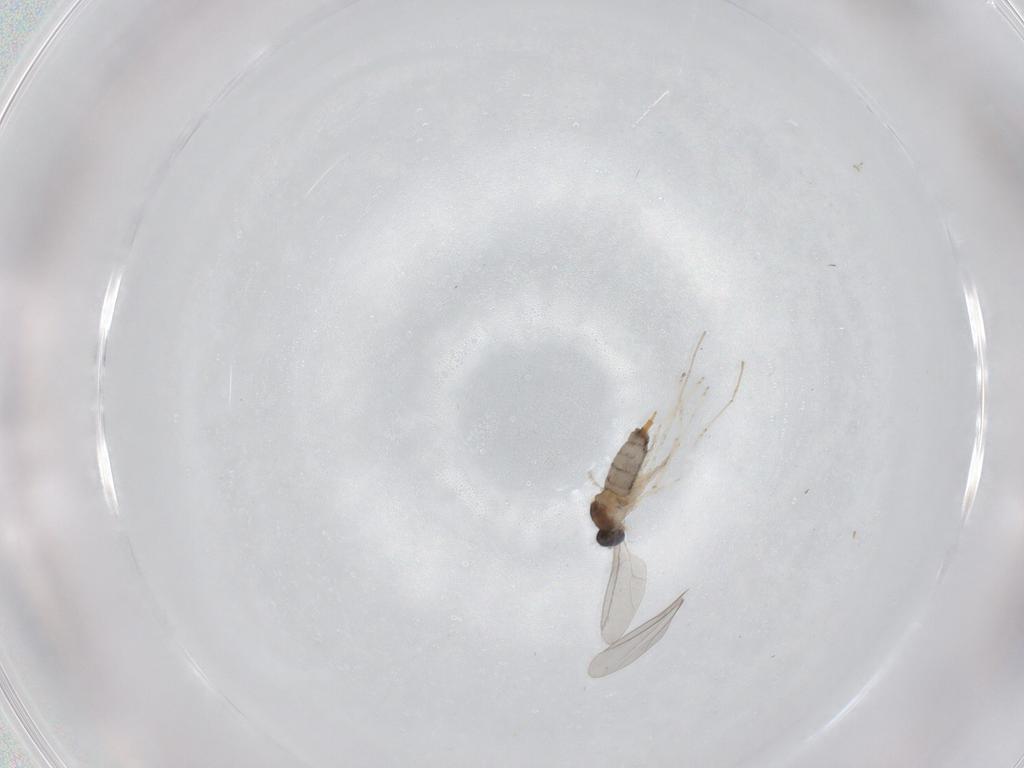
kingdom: Animalia
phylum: Arthropoda
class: Insecta
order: Diptera
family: Cecidomyiidae
